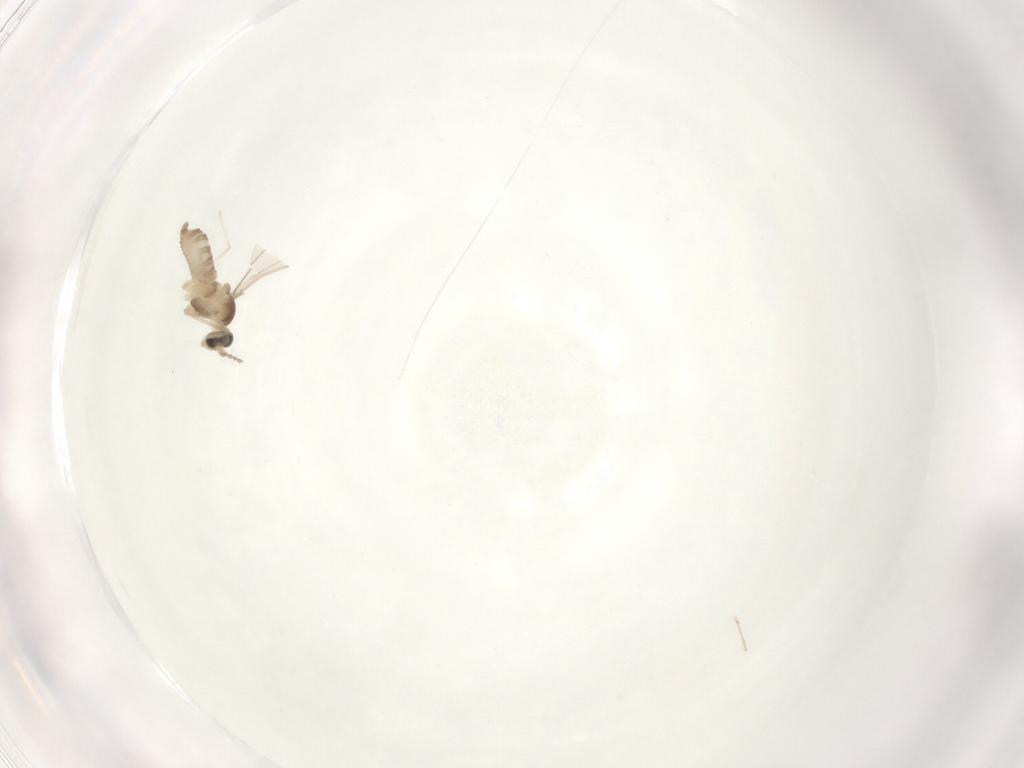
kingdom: Animalia
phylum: Arthropoda
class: Insecta
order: Diptera
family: Cecidomyiidae
